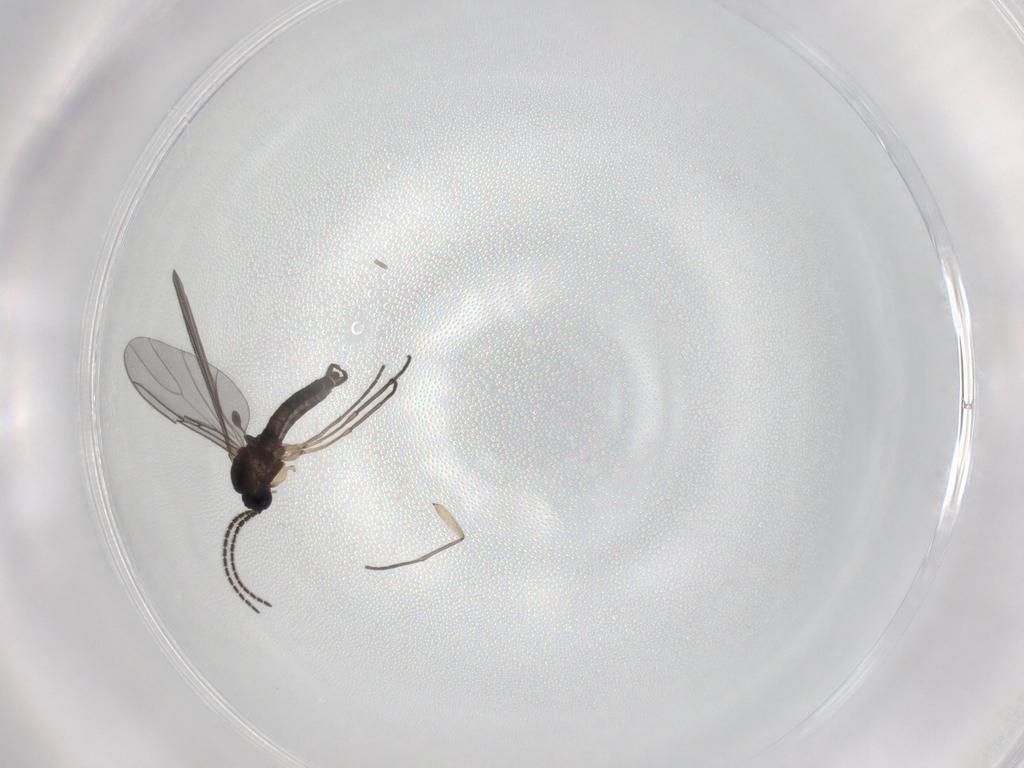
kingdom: Animalia
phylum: Arthropoda
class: Insecta
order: Diptera
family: Sciaridae
